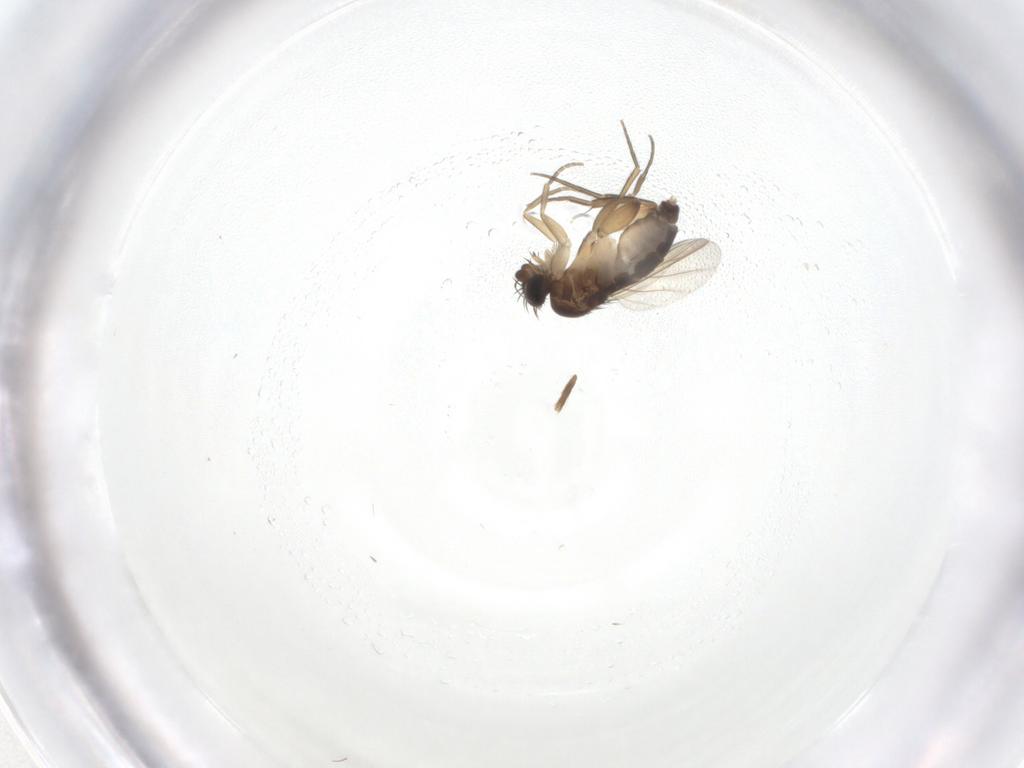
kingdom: Animalia
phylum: Arthropoda
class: Insecta
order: Diptera
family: Phoridae
